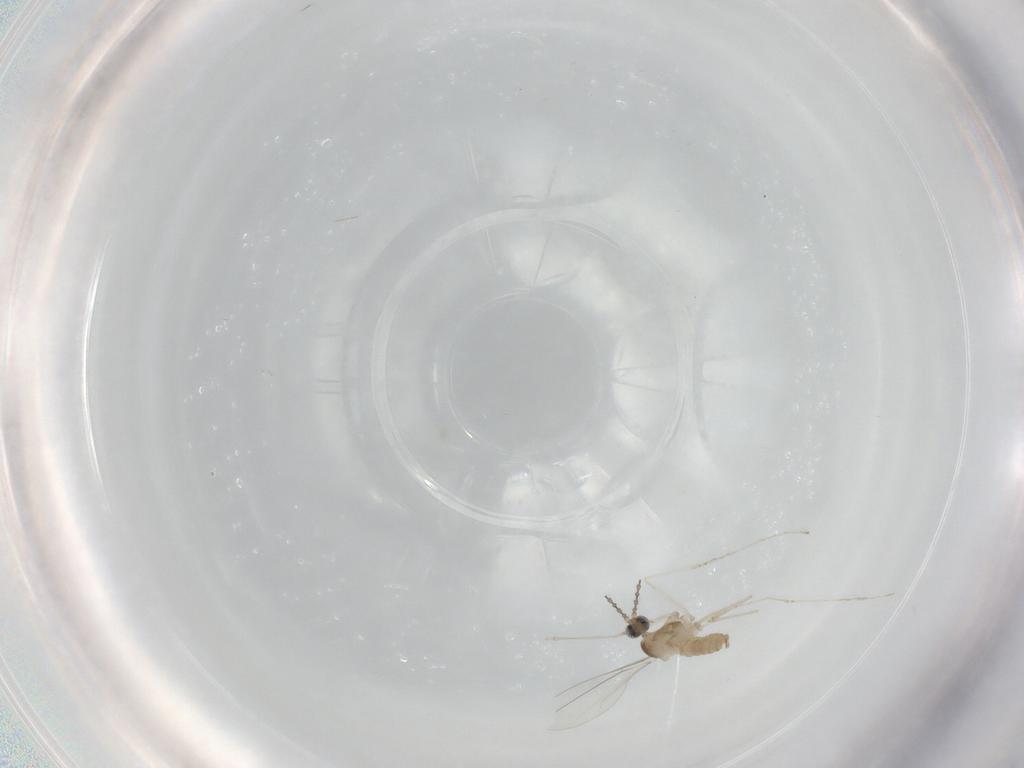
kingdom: Animalia
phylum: Arthropoda
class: Insecta
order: Diptera
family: Cecidomyiidae
